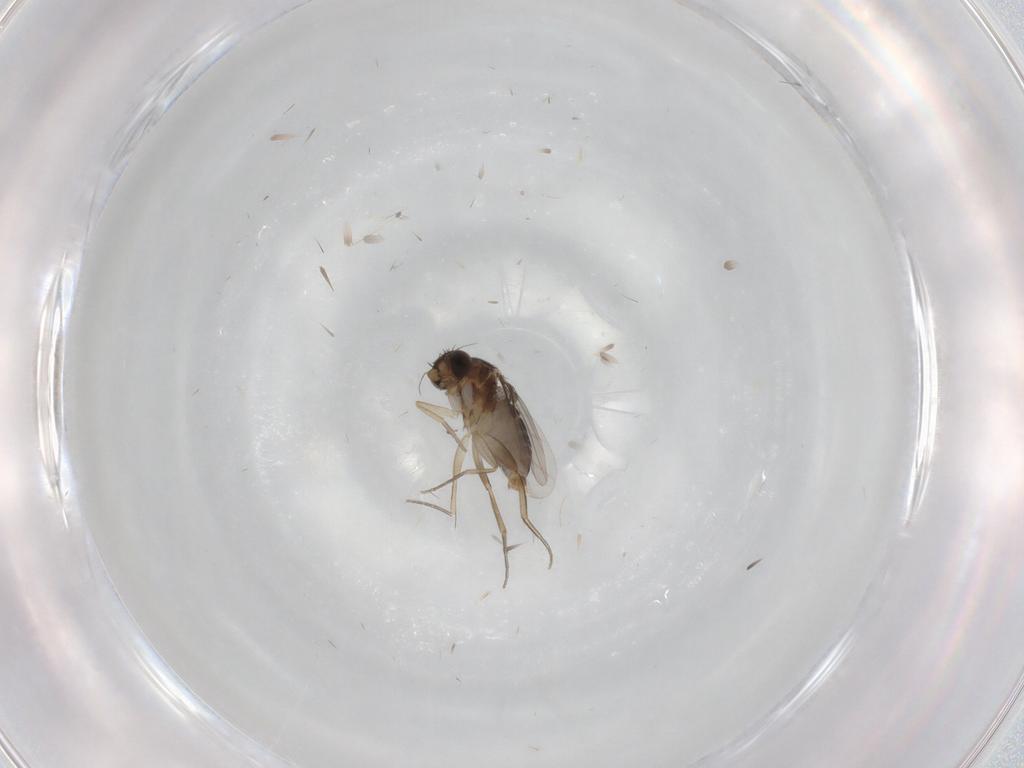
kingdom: Animalia
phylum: Arthropoda
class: Insecta
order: Diptera
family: Phoridae
